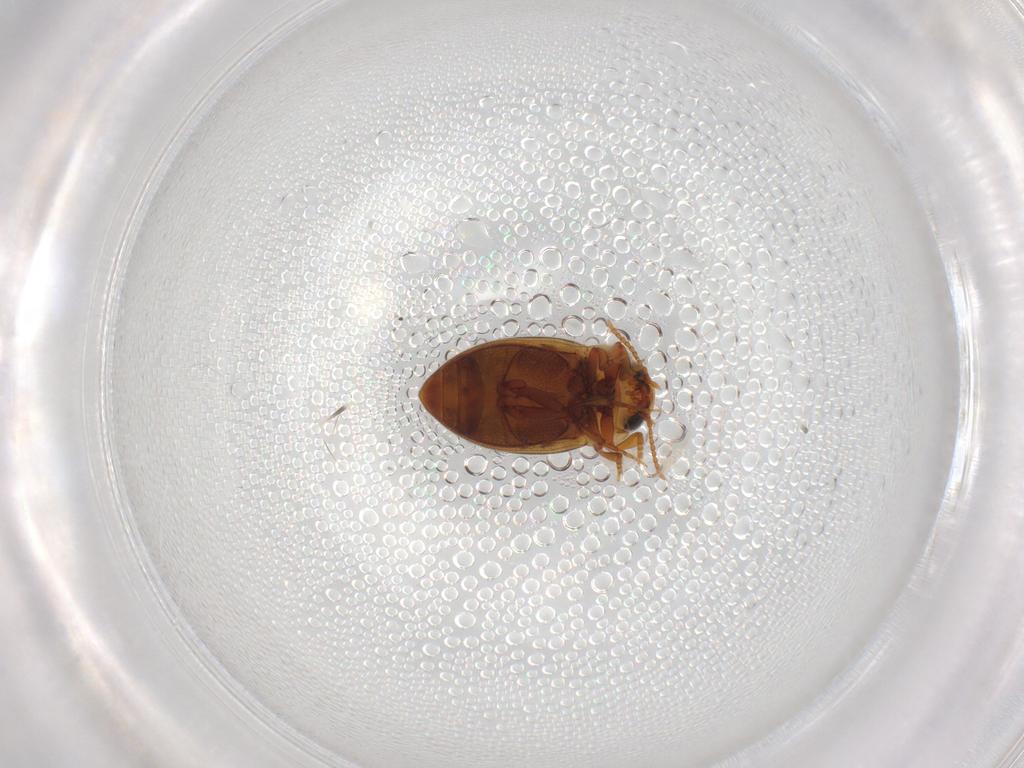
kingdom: Animalia
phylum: Arthropoda
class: Insecta
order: Coleoptera
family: Dytiscidae
